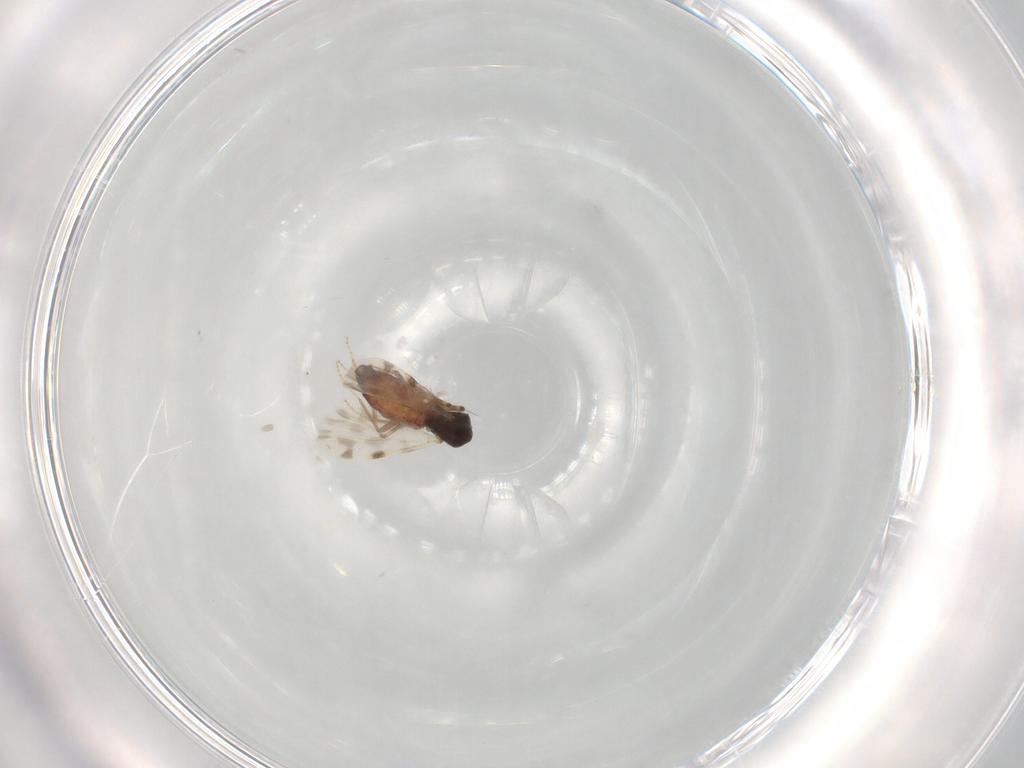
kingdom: Animalia
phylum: Arthropoda
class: Insecta
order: Diptera
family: Ceratopogonidae
